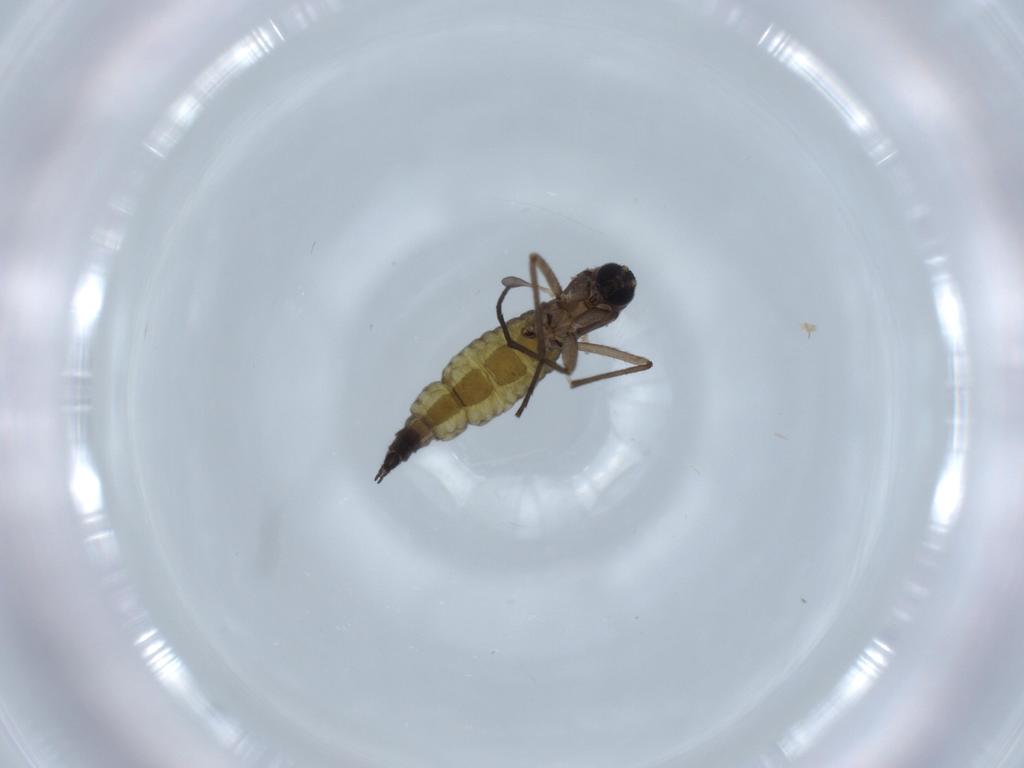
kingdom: Animalia
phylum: Arthropoda
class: Insecta
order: Diptera
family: Sciaridae
